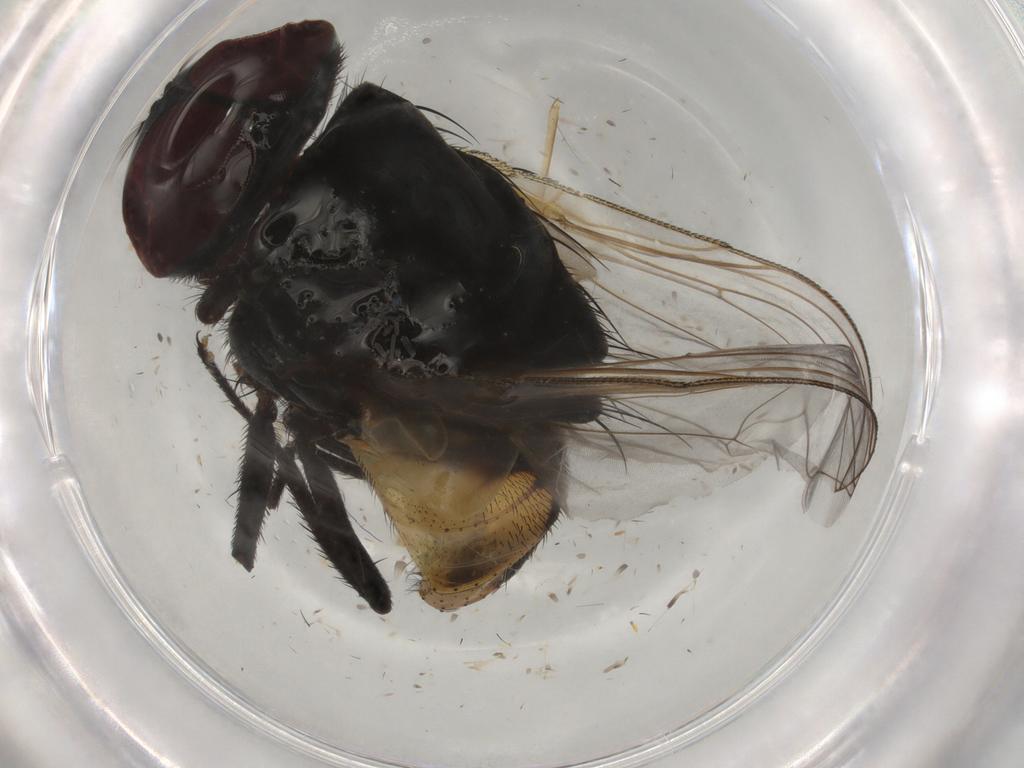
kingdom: Animalia
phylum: Arthropoda
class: Insecta
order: Diptera
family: Limoniidae
